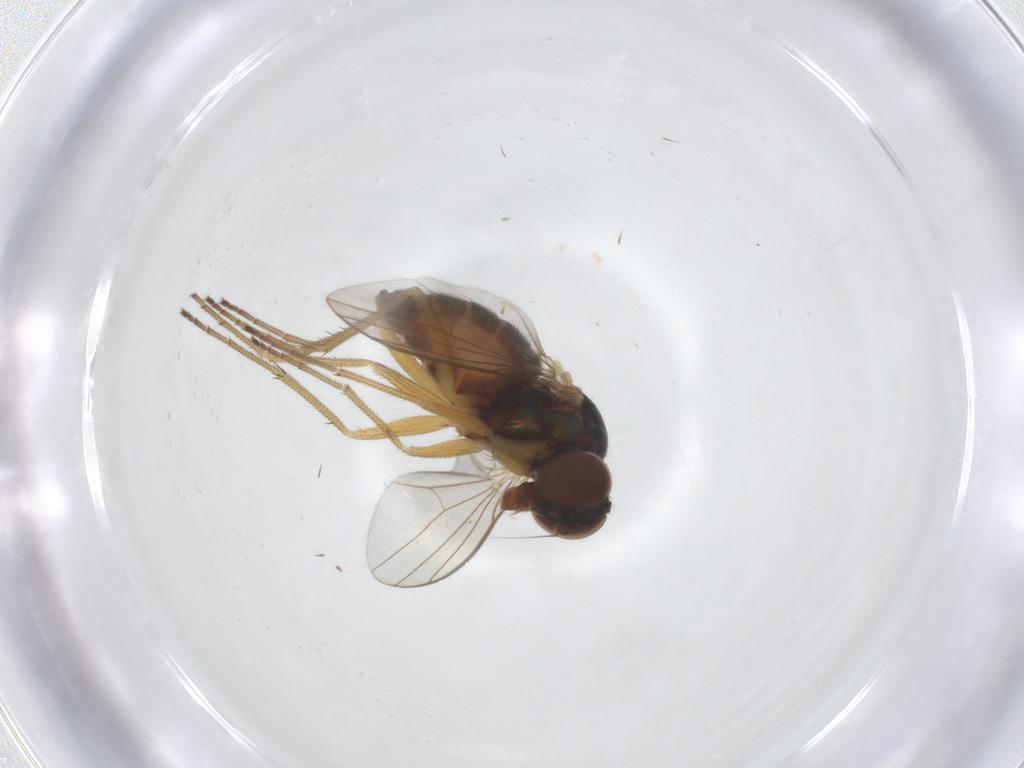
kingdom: Animalia
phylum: Arthropoda
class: Insecta
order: Diptera
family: Dolichopodidae
